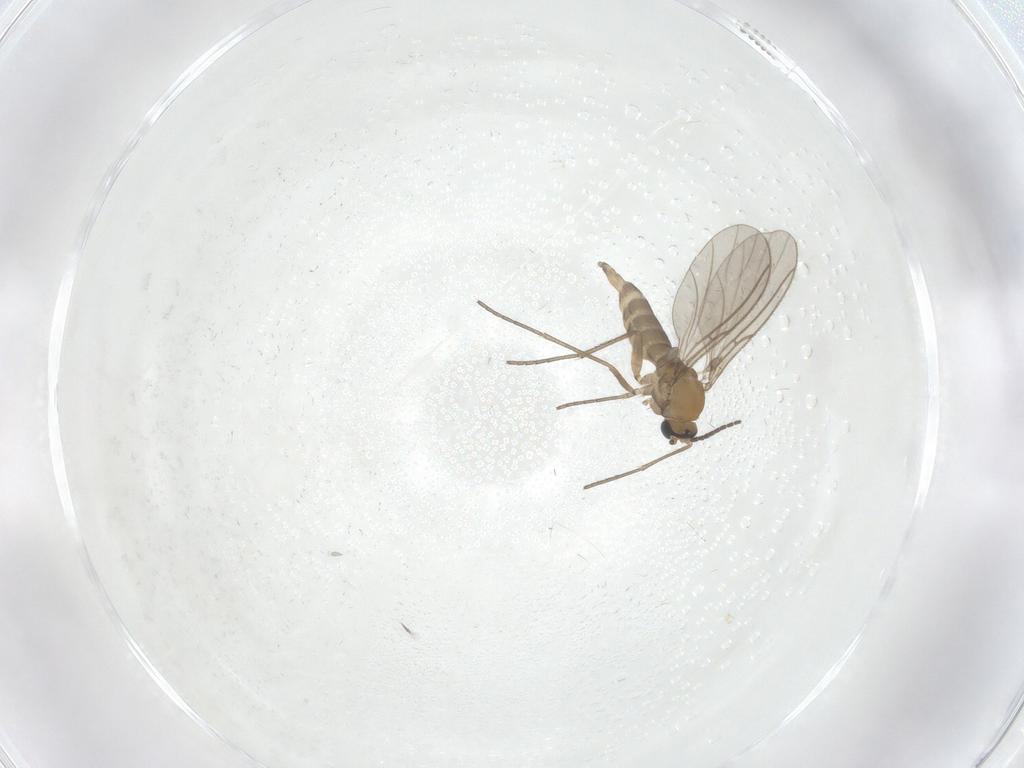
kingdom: Animalia
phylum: Arthropoda
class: Insecta
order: Diptera
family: Sciaridae
